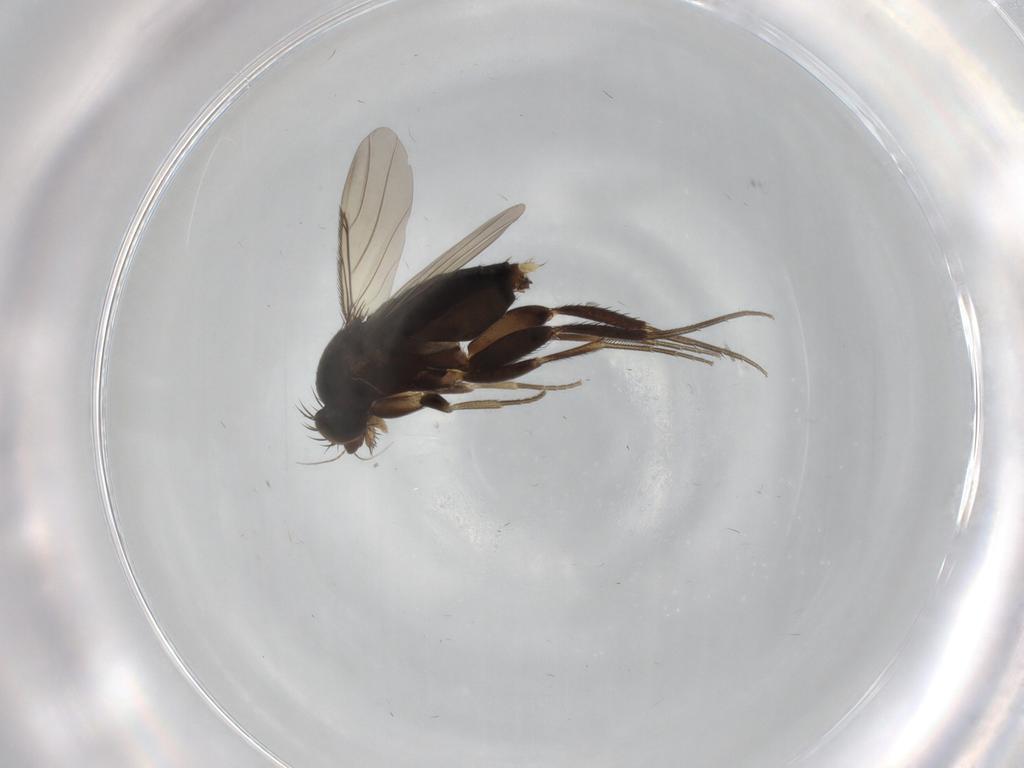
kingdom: Animalia
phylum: Arthropoda
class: Insecta
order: Diptera
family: Phoridae
